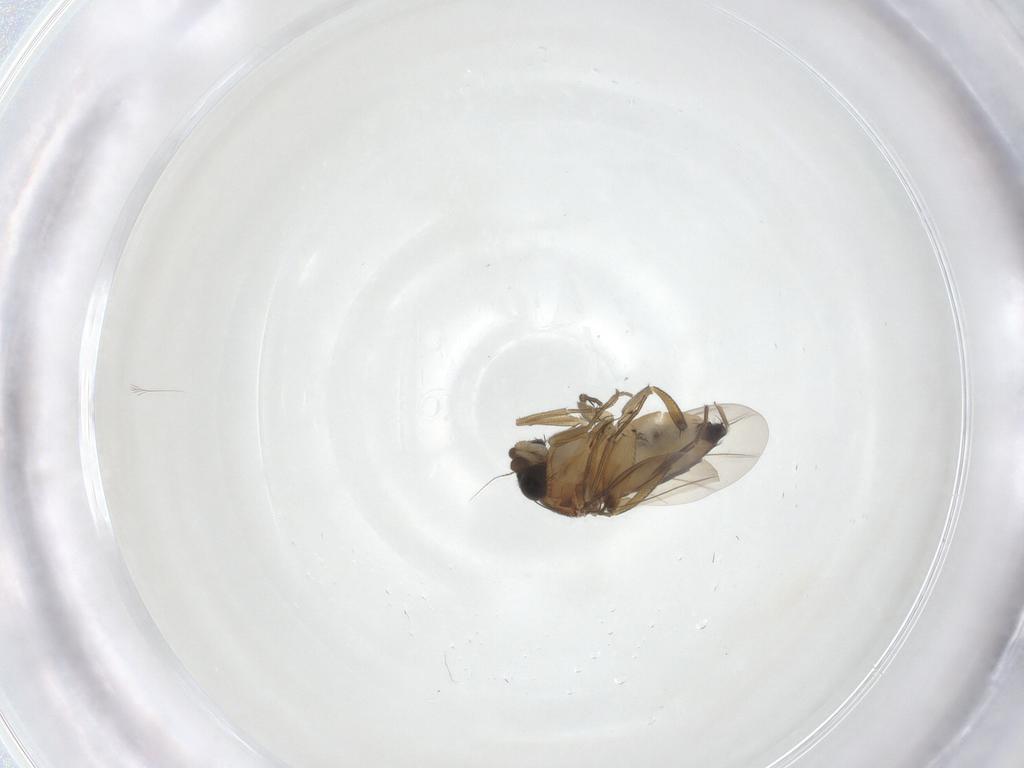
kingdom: Animalia
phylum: Arthropoda
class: Insecta
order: Diptera
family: Phoridae
